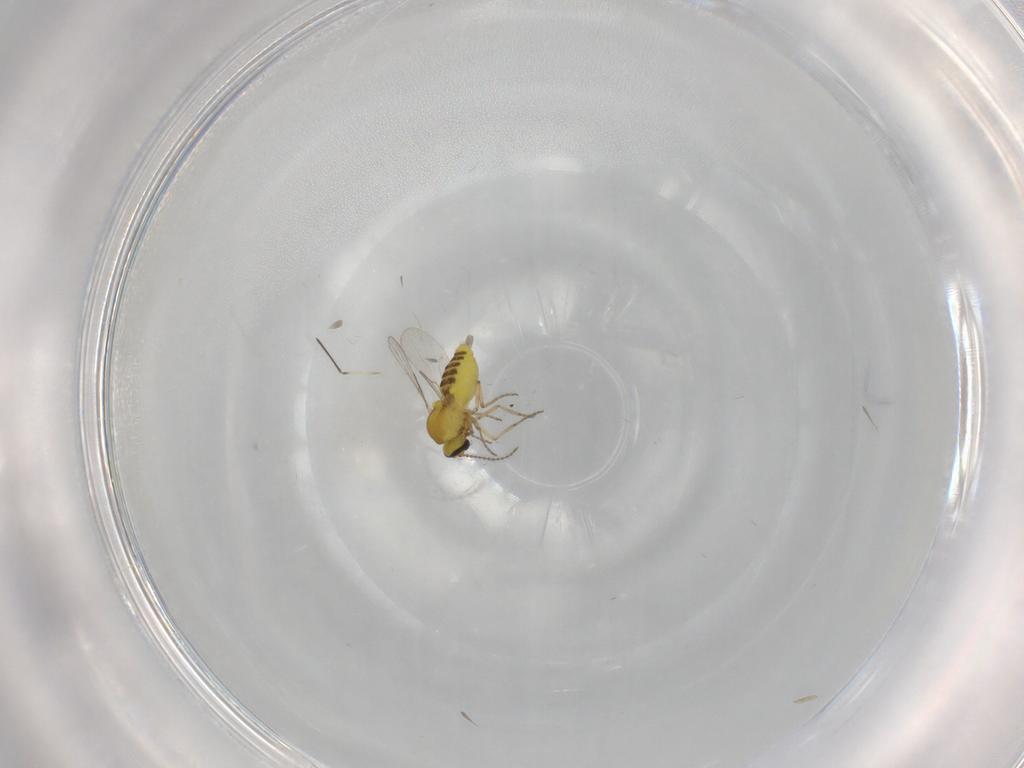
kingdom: Animalia
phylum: Arthropoda
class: Insecta
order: Diptera
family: Ceratopogonidae
